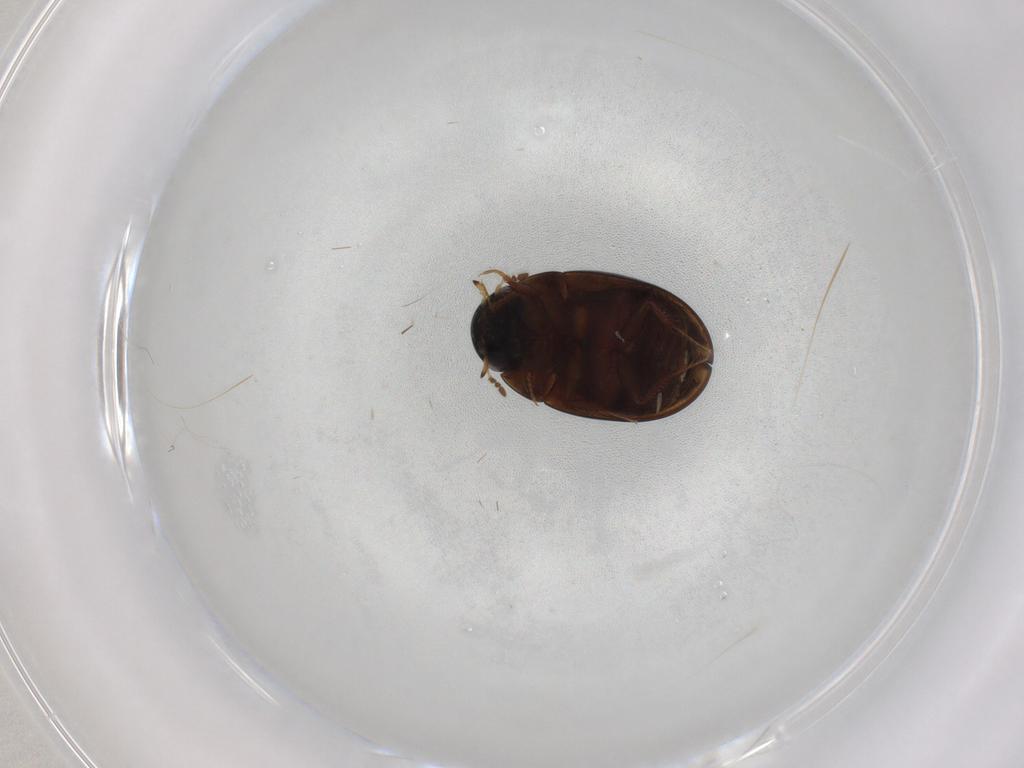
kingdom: Animalia
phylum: Arthropoda
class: Insecta
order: Coleoptera
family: Hydrophilidae
